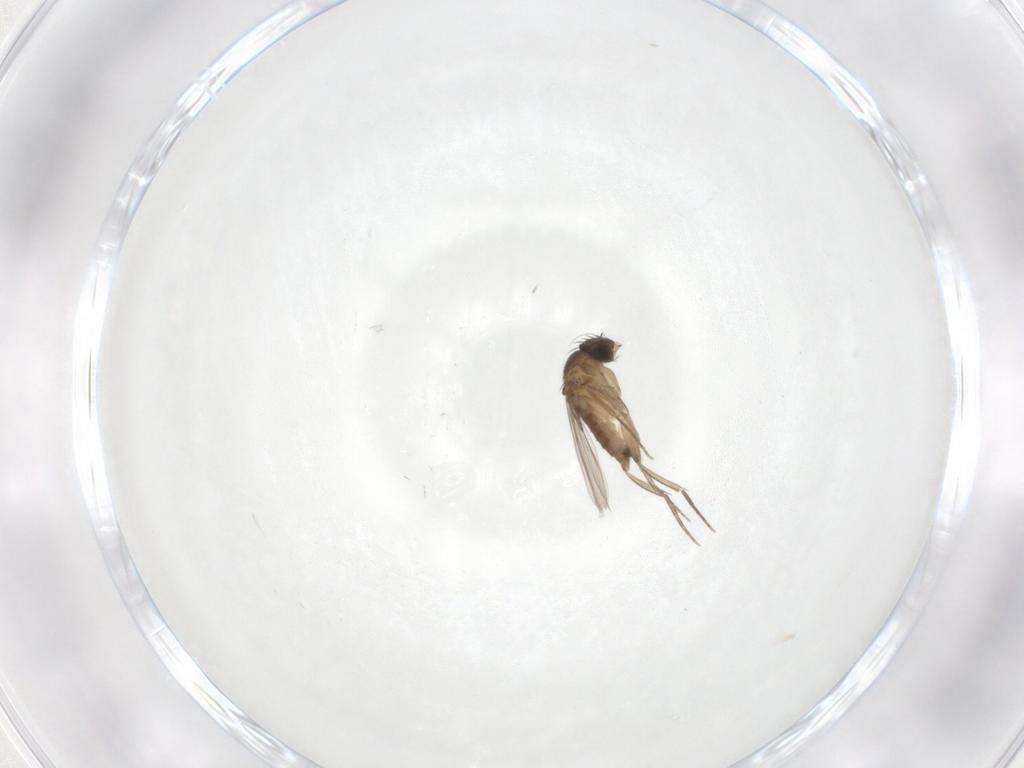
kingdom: Animalia
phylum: Arthropoda
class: Insecta
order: Diptera
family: Phoridae
